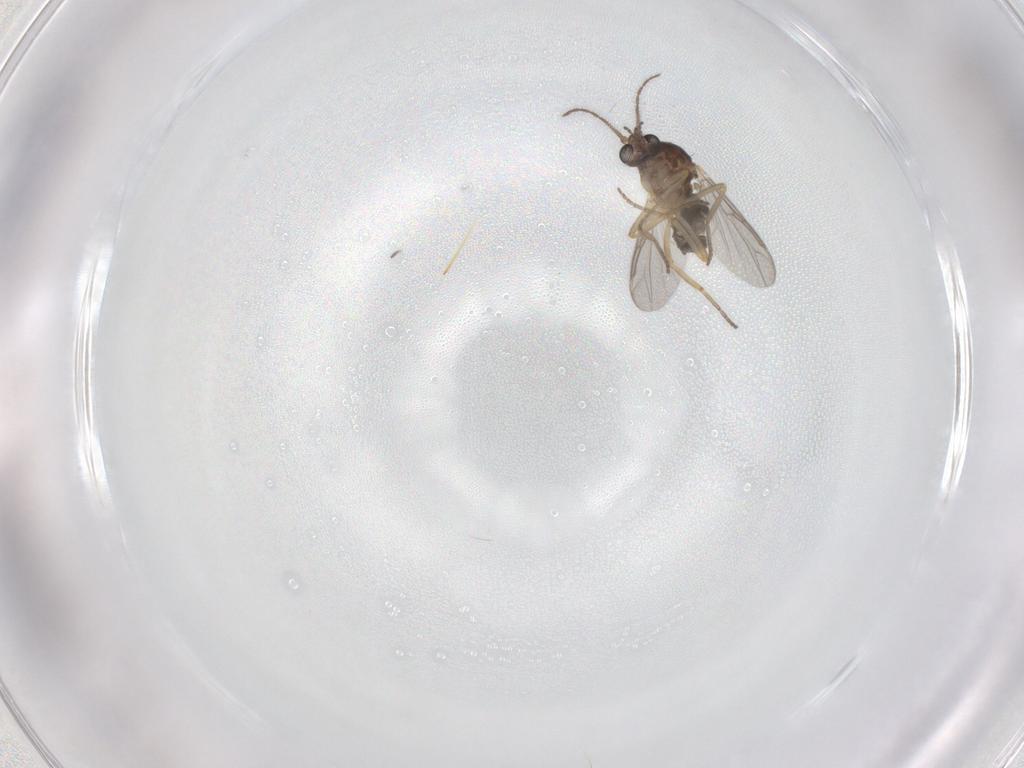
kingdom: Animalia
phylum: Arthropoda
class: Insecta
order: Diptera
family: Ceratopogonidae
